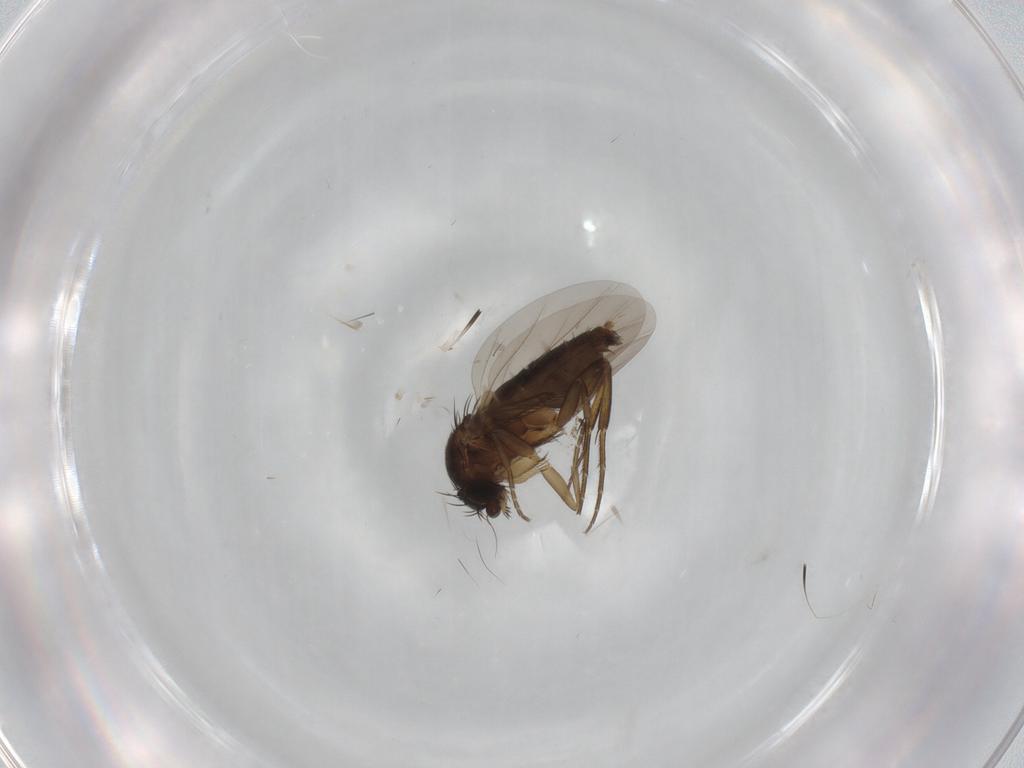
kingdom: Animalia
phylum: Arthropoda
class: Insecta
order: Diptera
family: Phoridae
